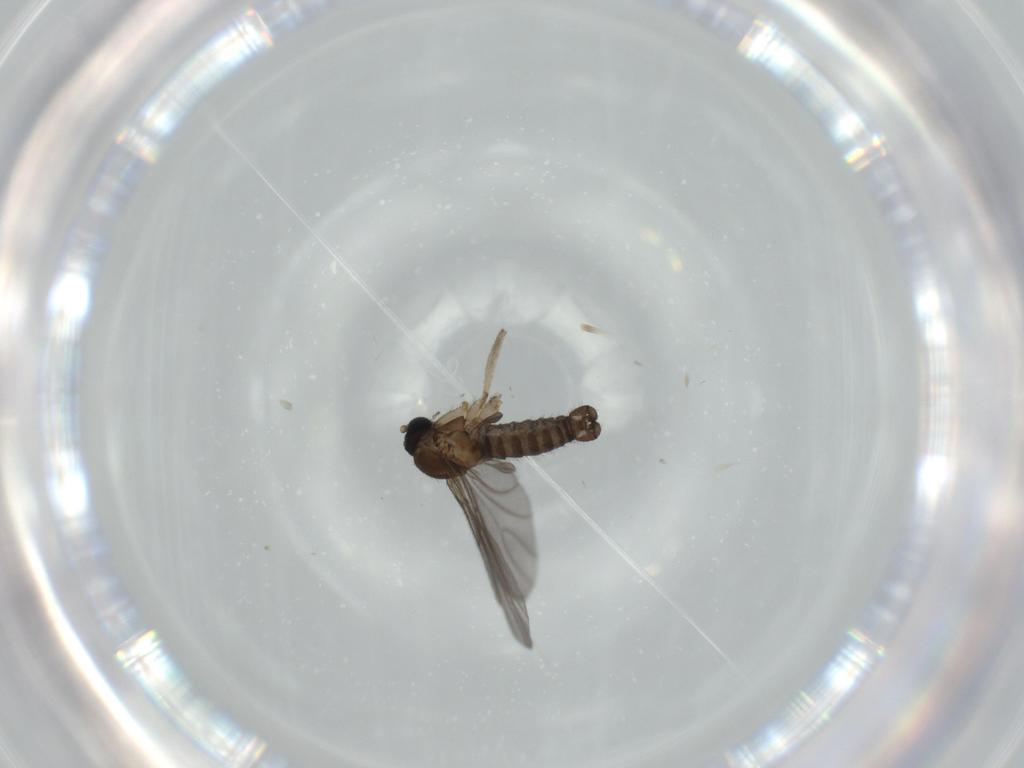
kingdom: Animalia
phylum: Arthropoda
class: Insecta
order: Diptera
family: Sciaridae
